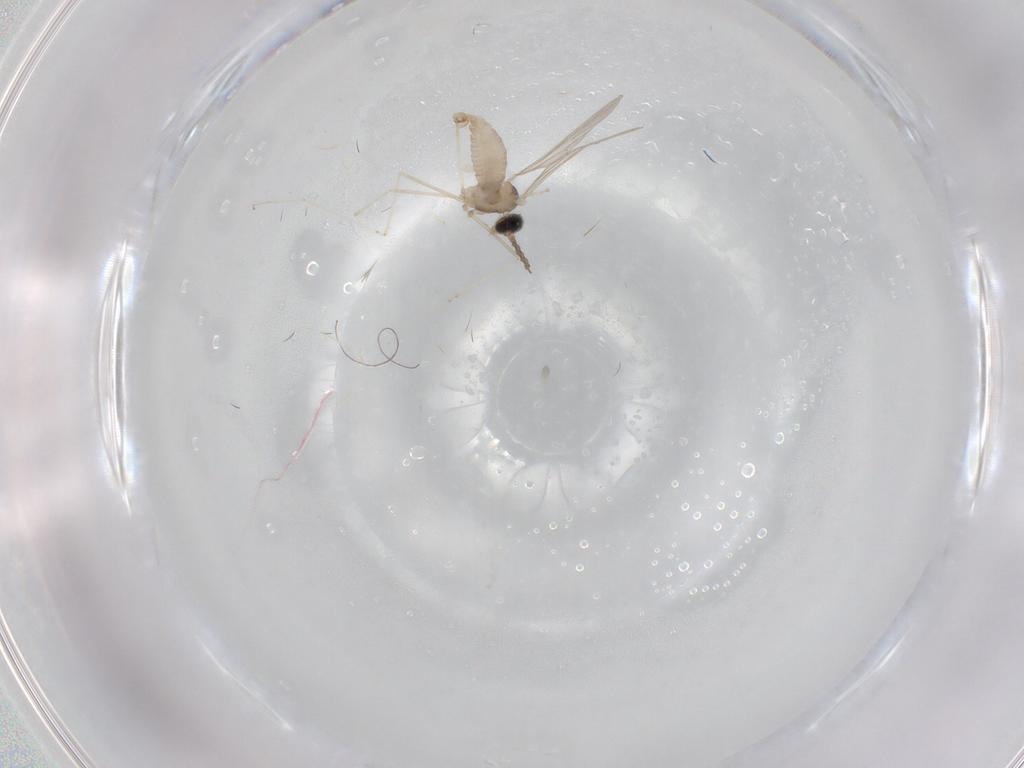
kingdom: Animalia
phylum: Arthropoda
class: Insecta
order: Diptera
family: Cecidomyiidae
